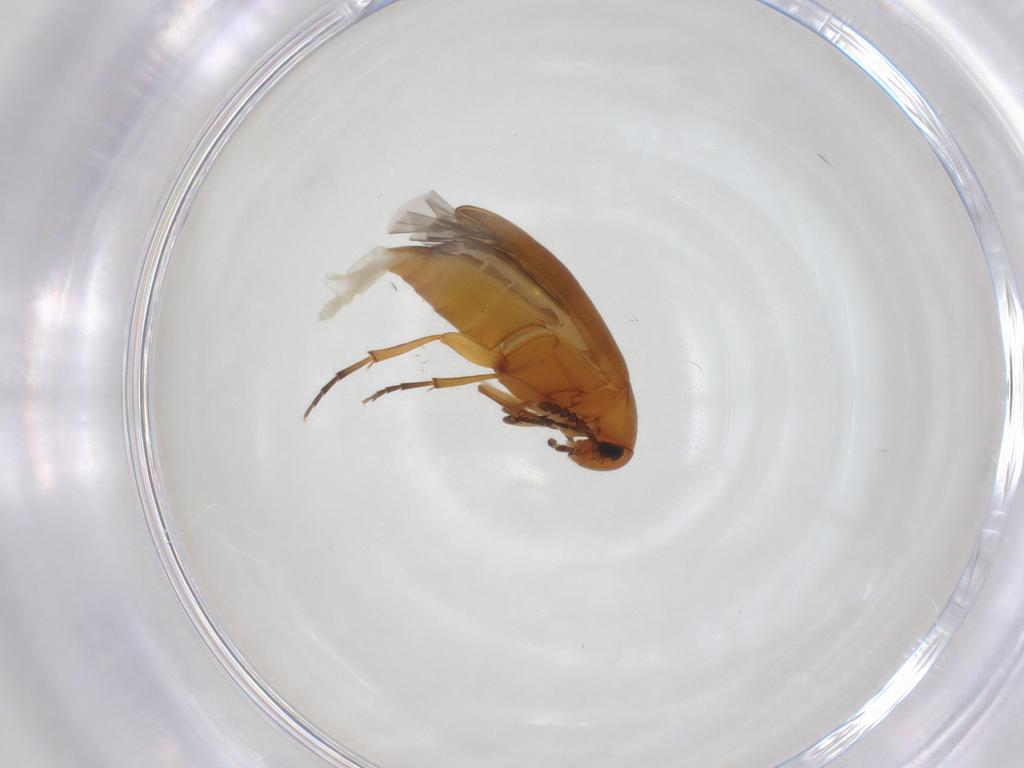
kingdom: Animalia
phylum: Arthropoda
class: Insecta
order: Coleoptera
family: Scraptiidae
